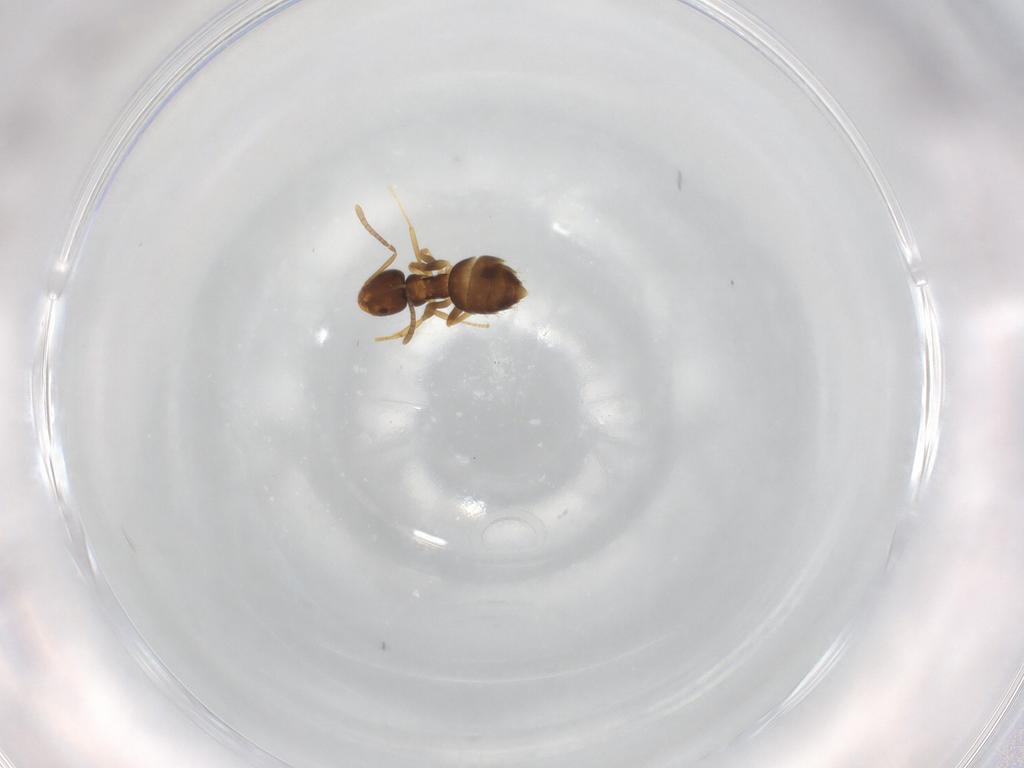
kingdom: Animalia
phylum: Arthropoda
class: Insecta
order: Hymenoptera
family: Formicidae
